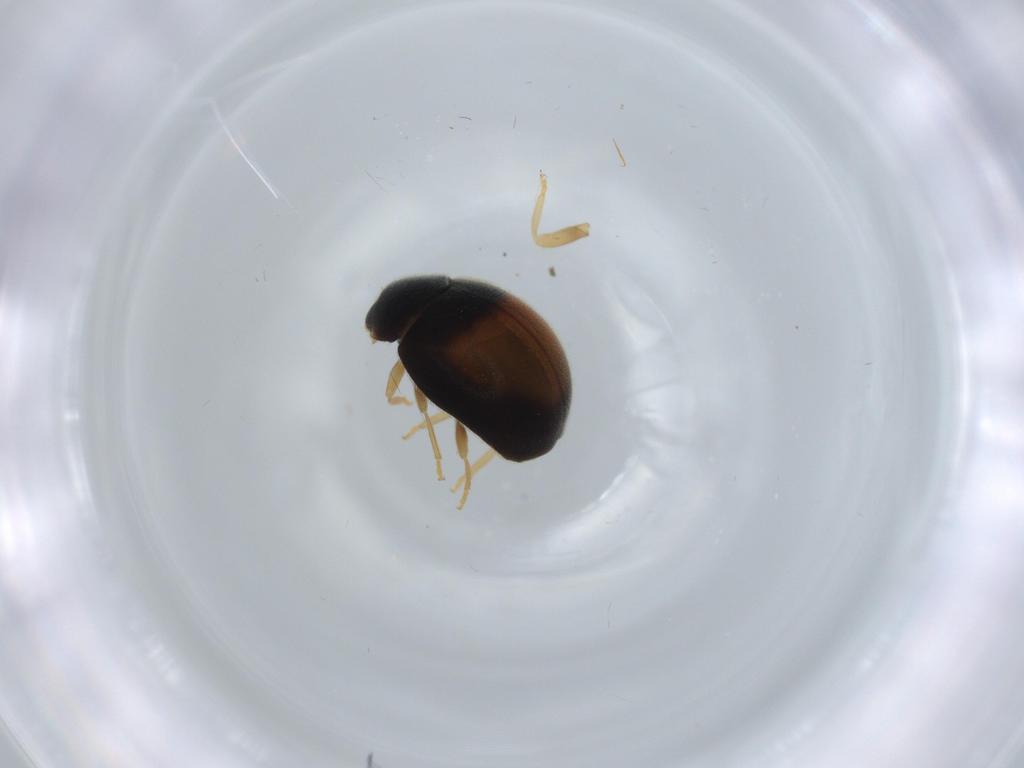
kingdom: Animalia
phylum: Arthropoda
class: Insecta
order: Coleoptera
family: Coccinellidae
